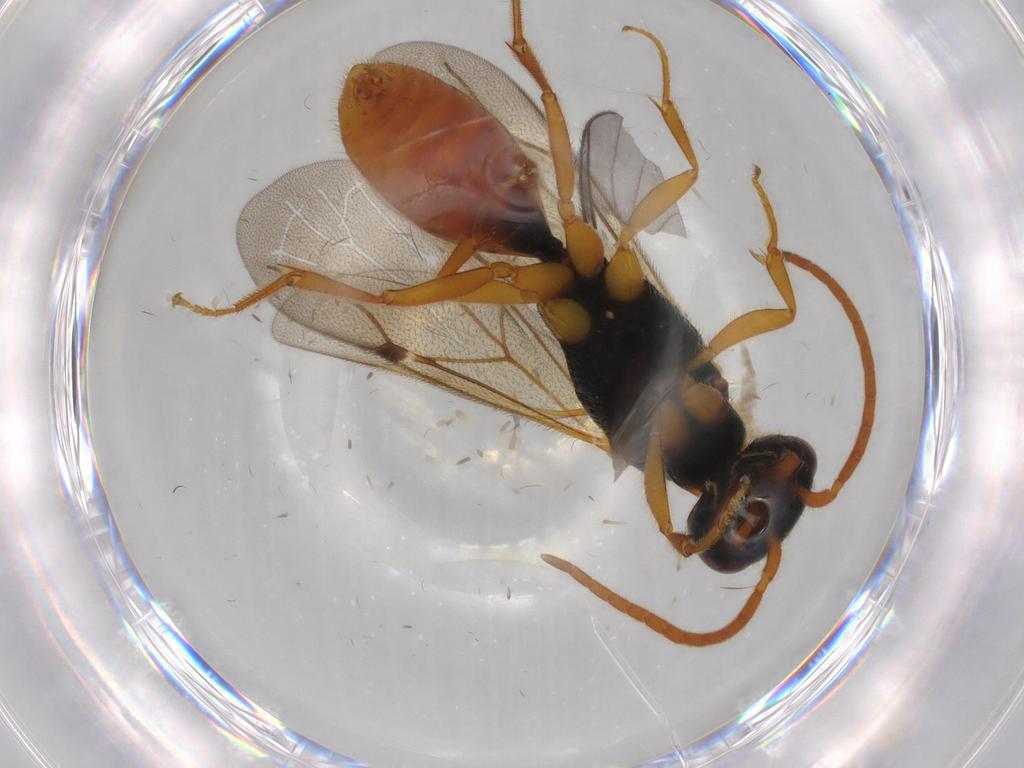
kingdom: Animalia
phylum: Arthropoda
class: Insecta
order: Hymenoptera
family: Bethylidae
